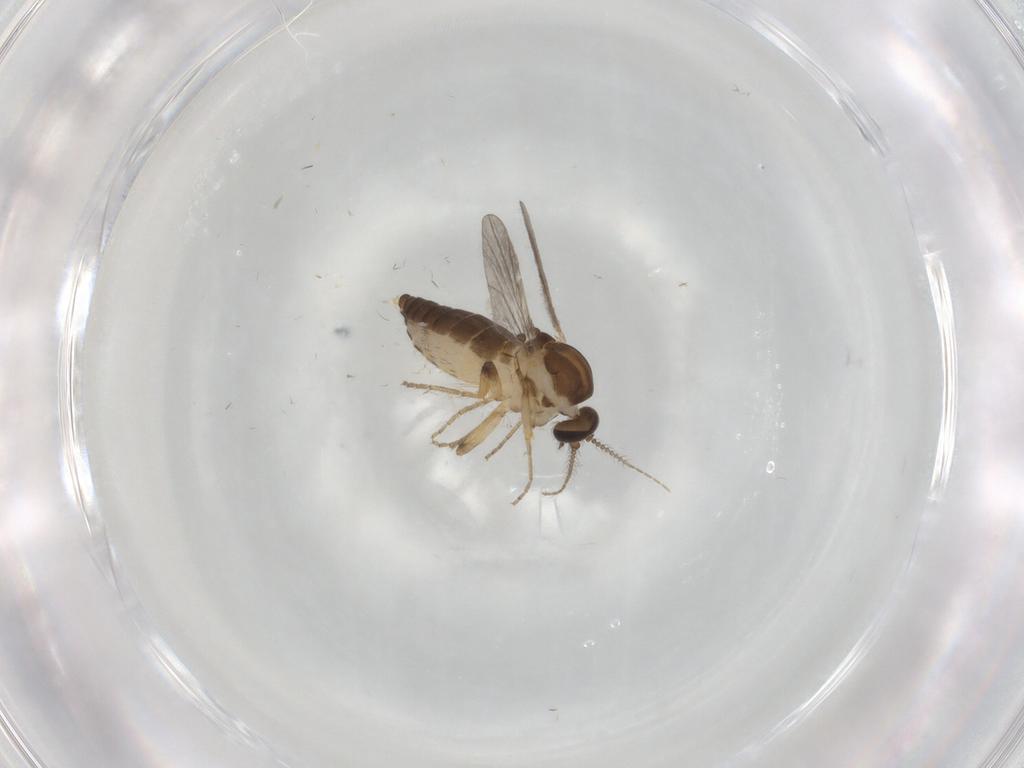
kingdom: Animalia
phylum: Arthropoda
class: Insecta
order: Diptera
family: Ceratopogonidae
